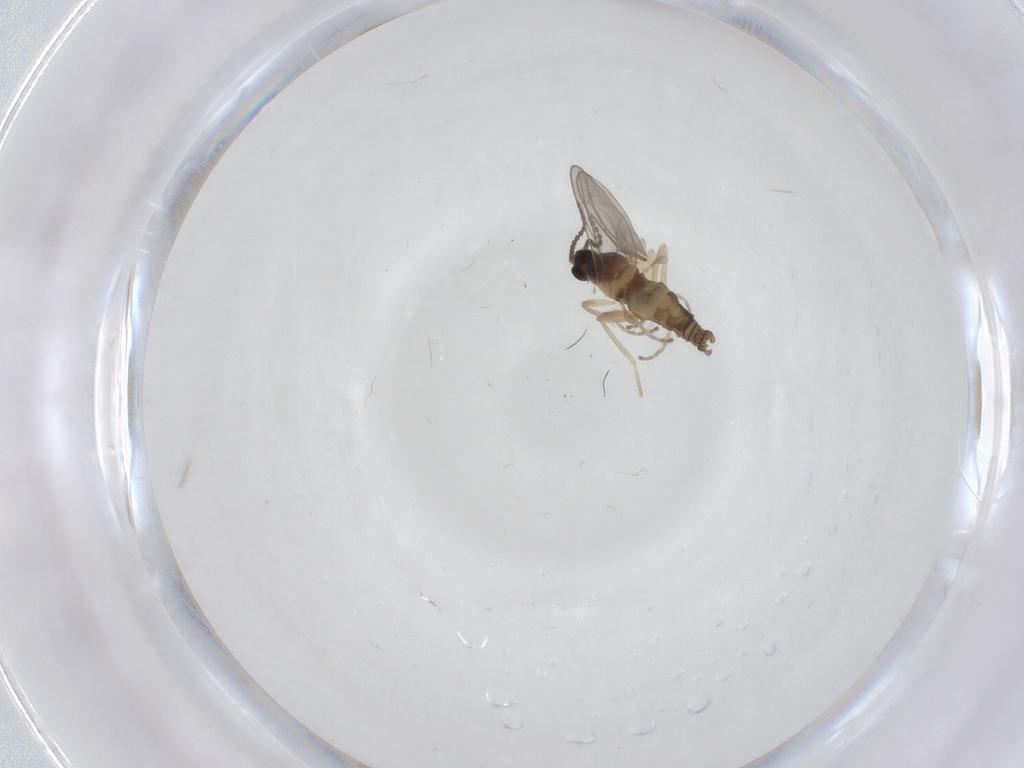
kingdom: Animalia
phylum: Arthropoda
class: Insecta
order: Diptera
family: Cecidomyiidae
